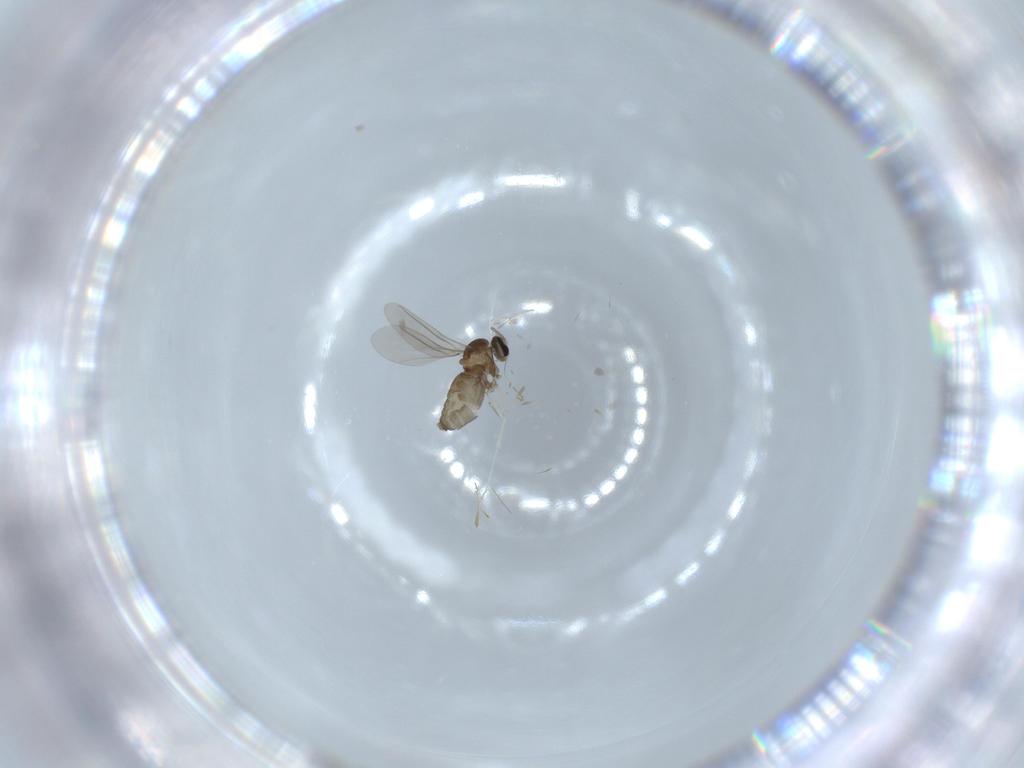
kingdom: Animalia
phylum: Arthropoda
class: Insecta
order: Diptera
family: Cecidomyiidae
